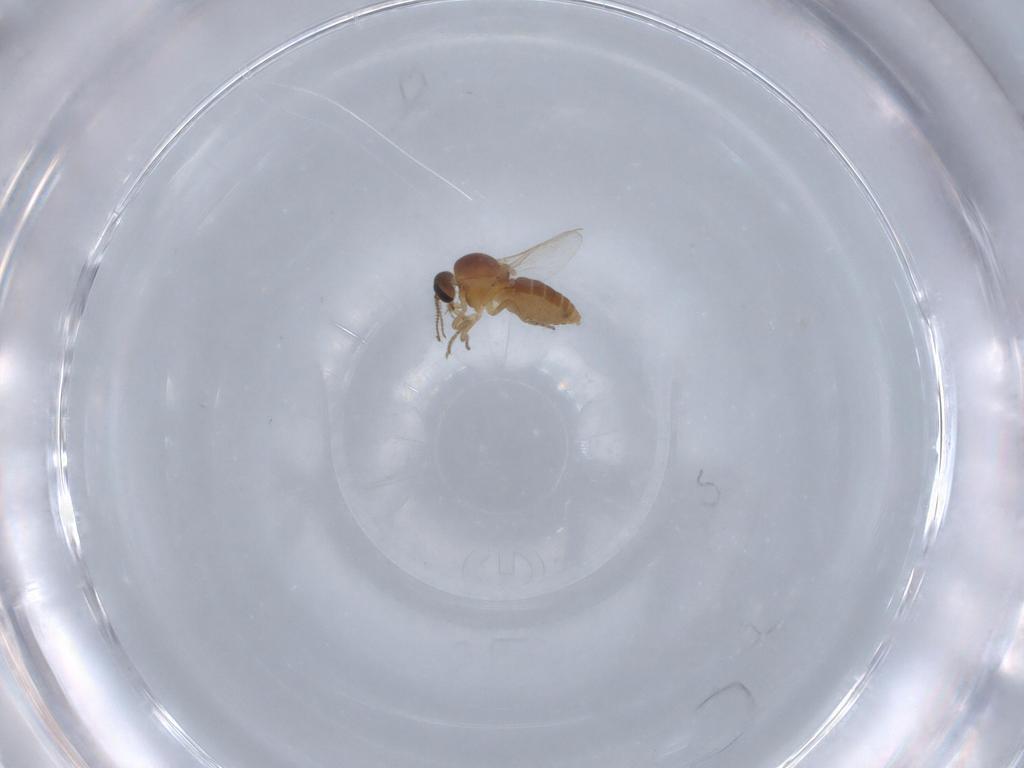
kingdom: Animalia
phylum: Arthropoda
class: Insecta
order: Diptera
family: Ceratopogonidae
